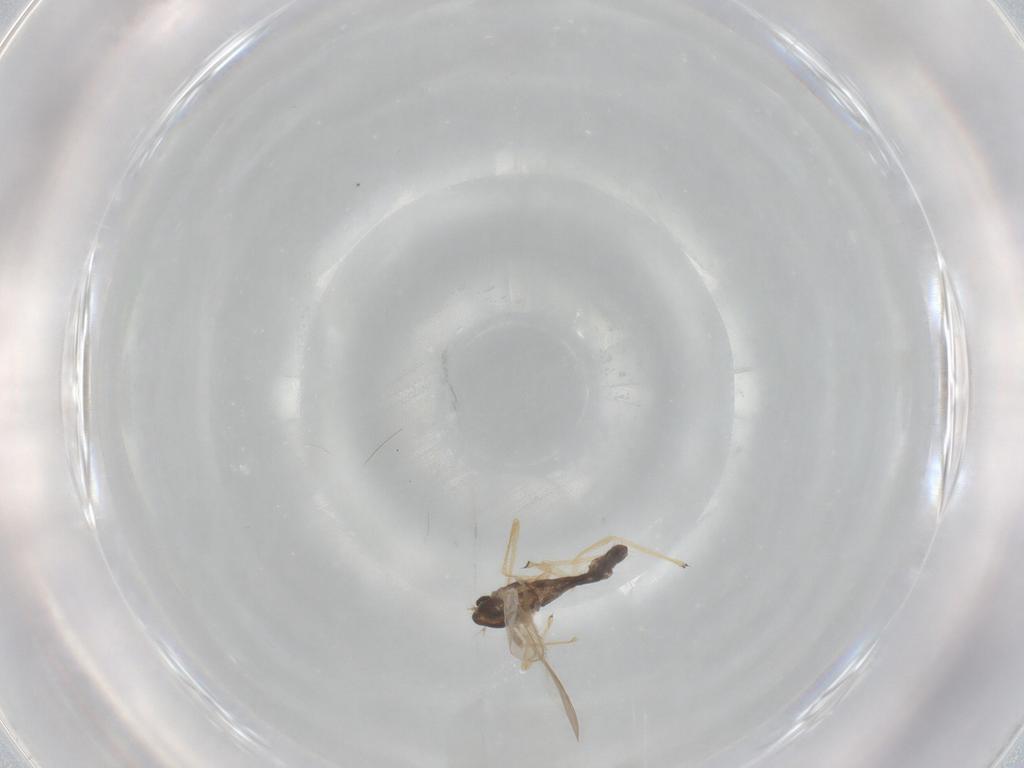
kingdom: Animalia
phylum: Arthropoda
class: Insecta
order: Diptera
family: Chironomidae
